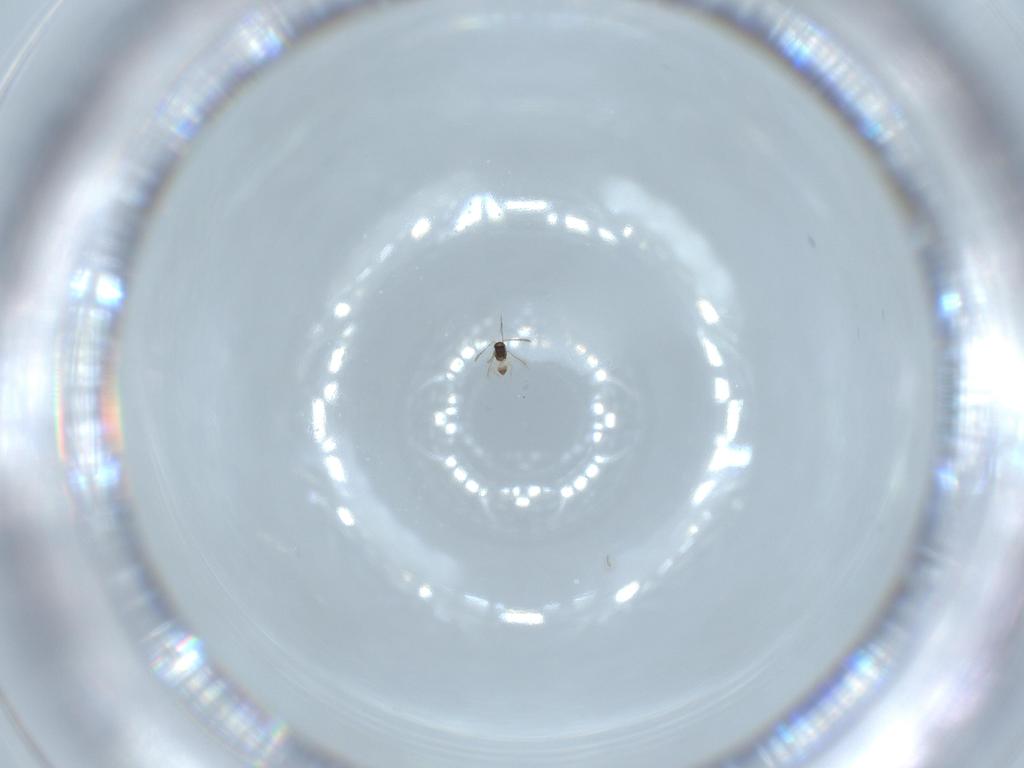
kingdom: Animalia
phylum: Arthropoda
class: Insecta
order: Hymenoptera
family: Scelionidae
